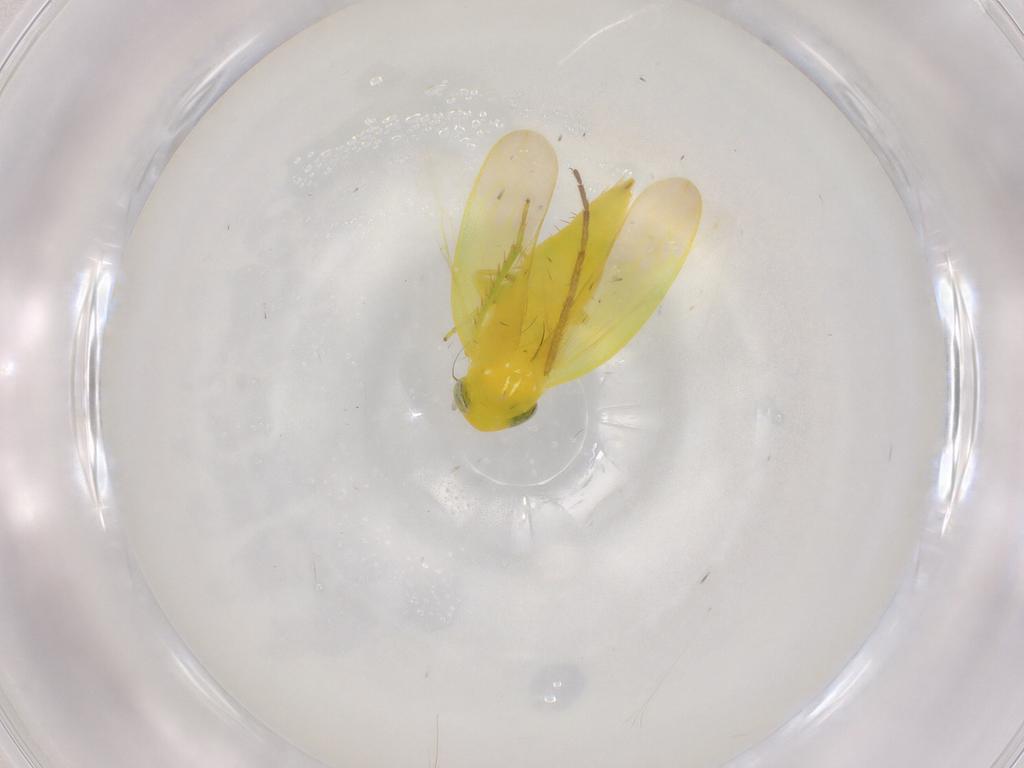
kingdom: Animalia
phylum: Arthropoda
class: Insecta
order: Hemiptera
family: Cicadellidae
